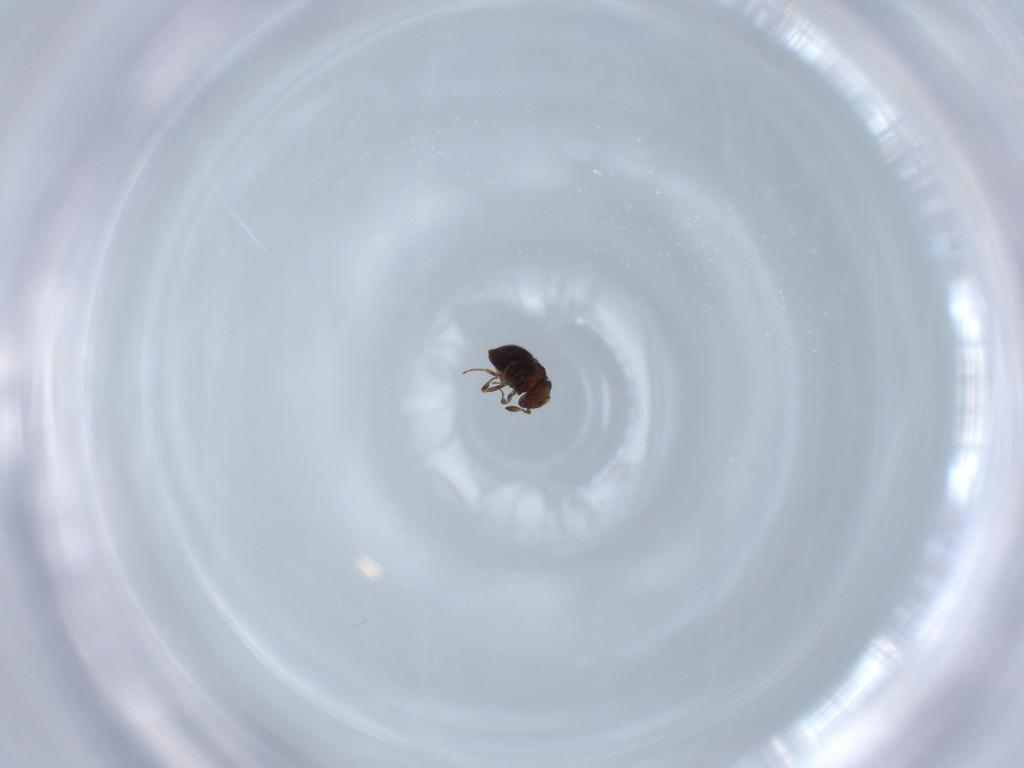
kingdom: Animalia
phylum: Arthropoda
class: Insecta
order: Hymenoptera
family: Scelionidae
